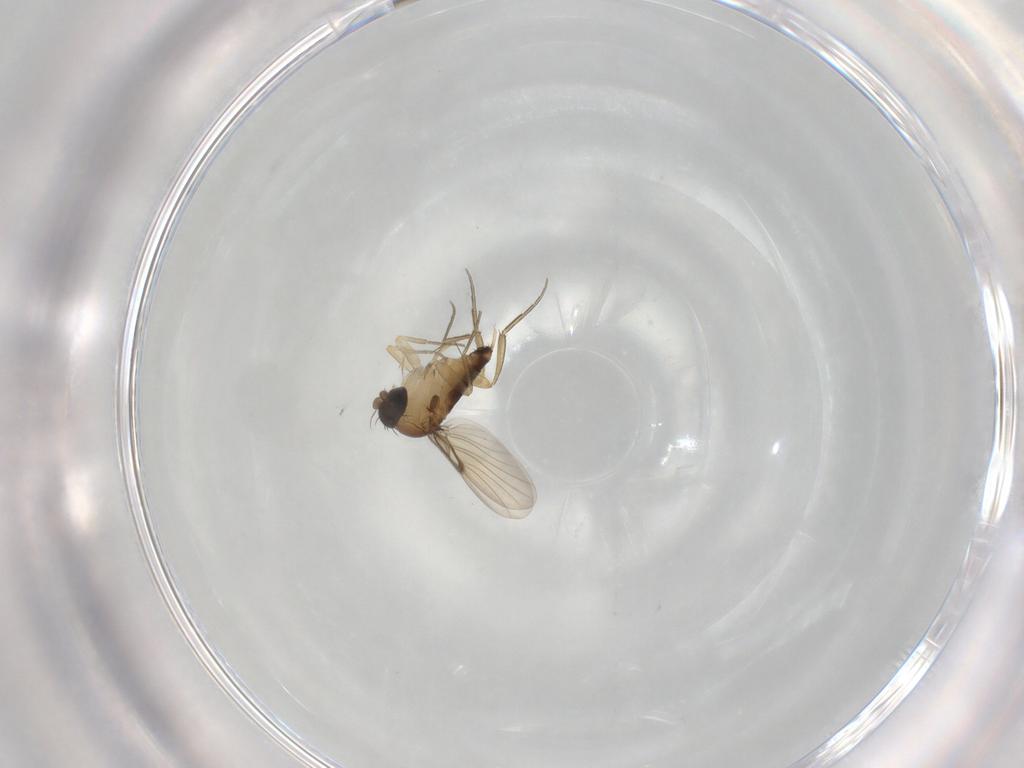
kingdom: Animalia
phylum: Arthropoda
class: Insecta
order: Diptera
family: Phoridae
